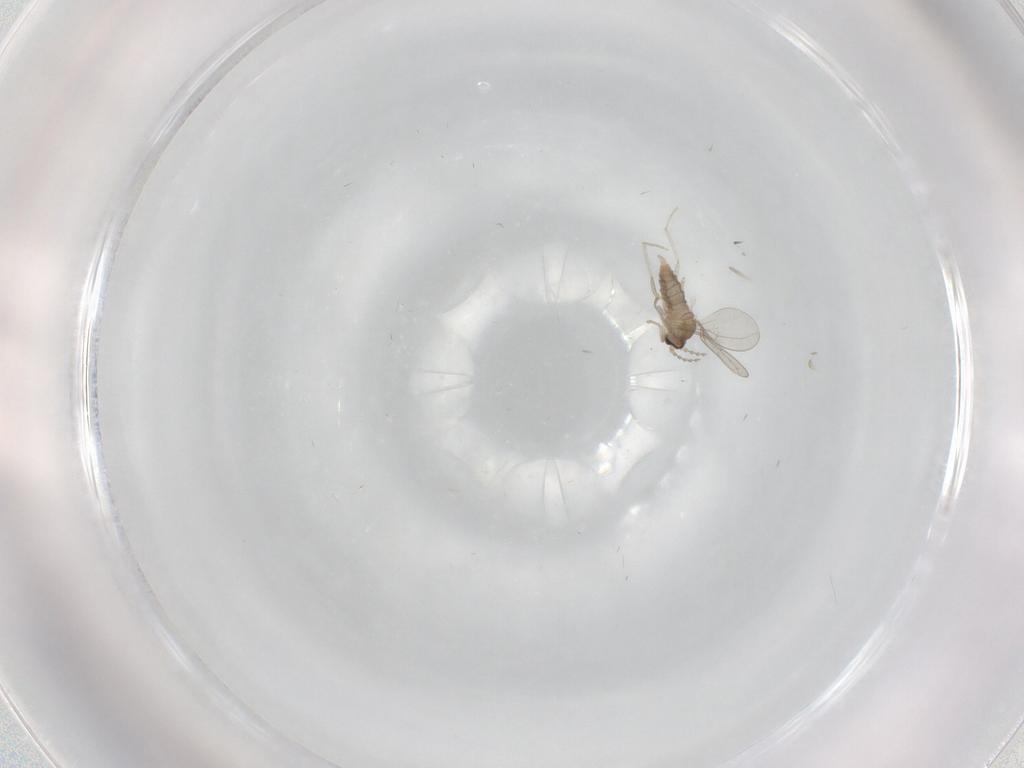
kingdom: Animalia
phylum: Arthropoda
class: Insecta
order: Diptera
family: Cecidomyiidae
